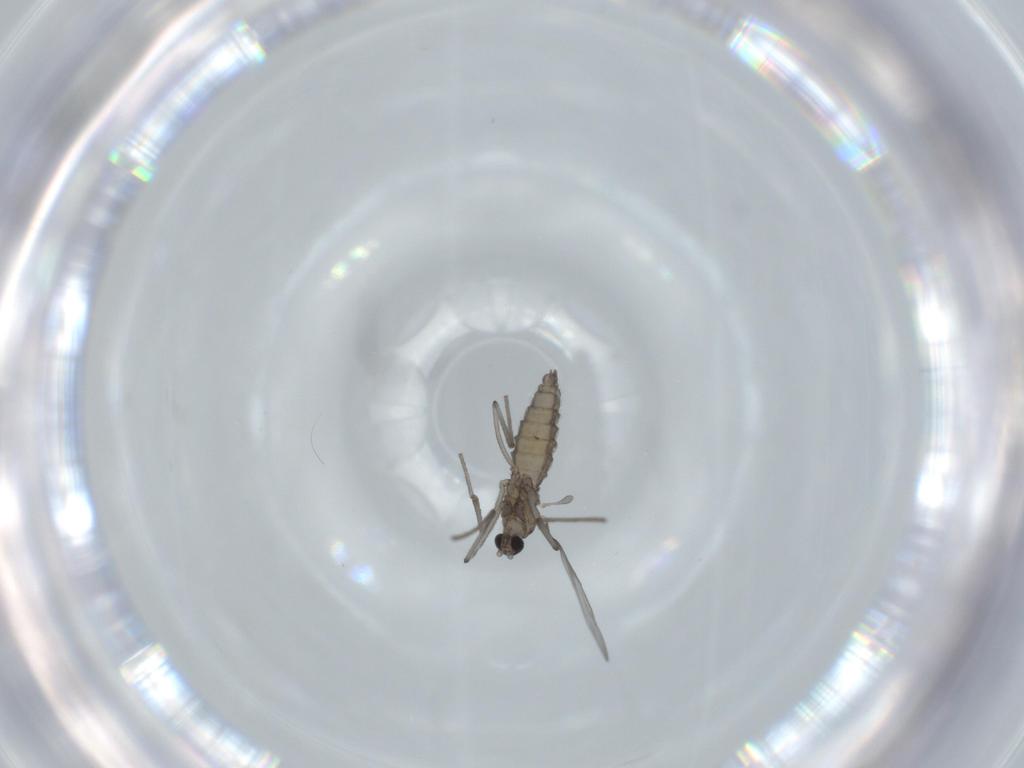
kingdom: Animalia
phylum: Arthropoda
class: Insecta
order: Diptera
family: Cecidomyiidae
